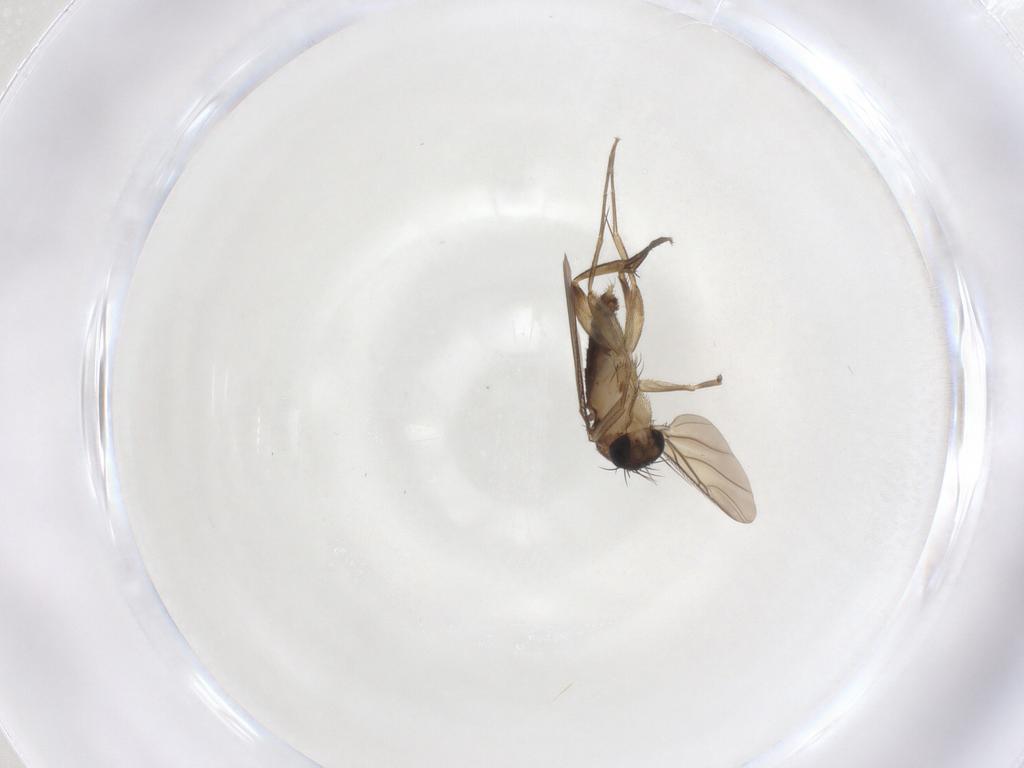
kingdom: Animalia
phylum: Arthropoda
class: Insecta
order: Diptera
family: Phoridae
